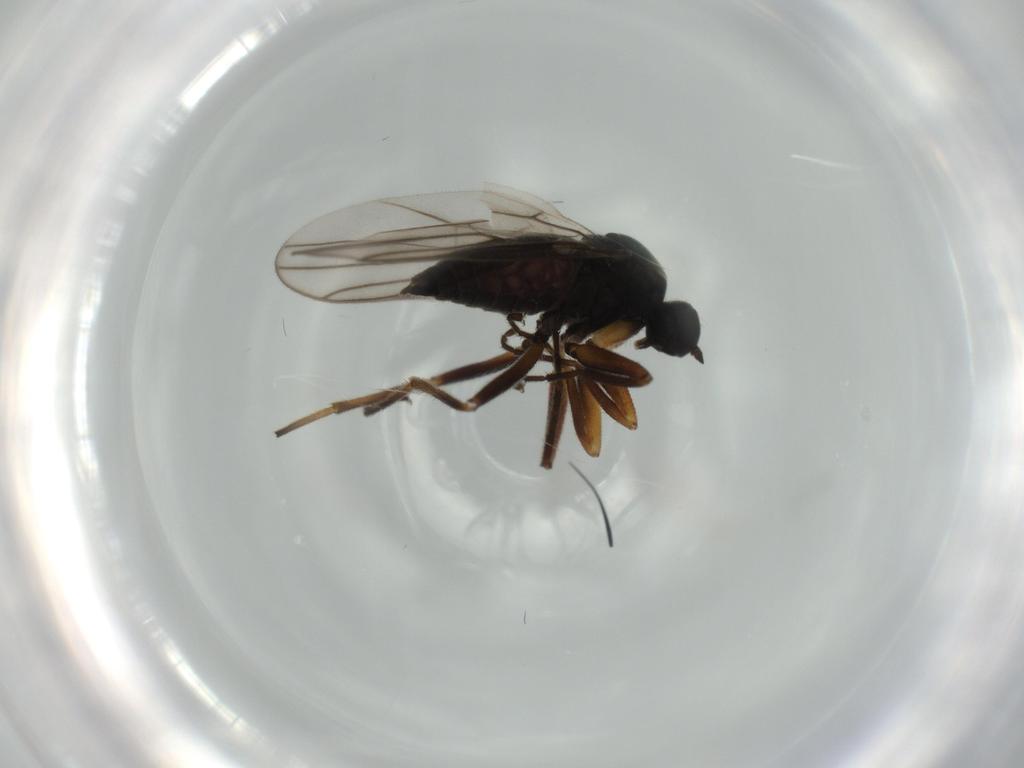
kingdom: Animalia
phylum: Arthropoda
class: Insecta
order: Diptera
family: Hybotidae
